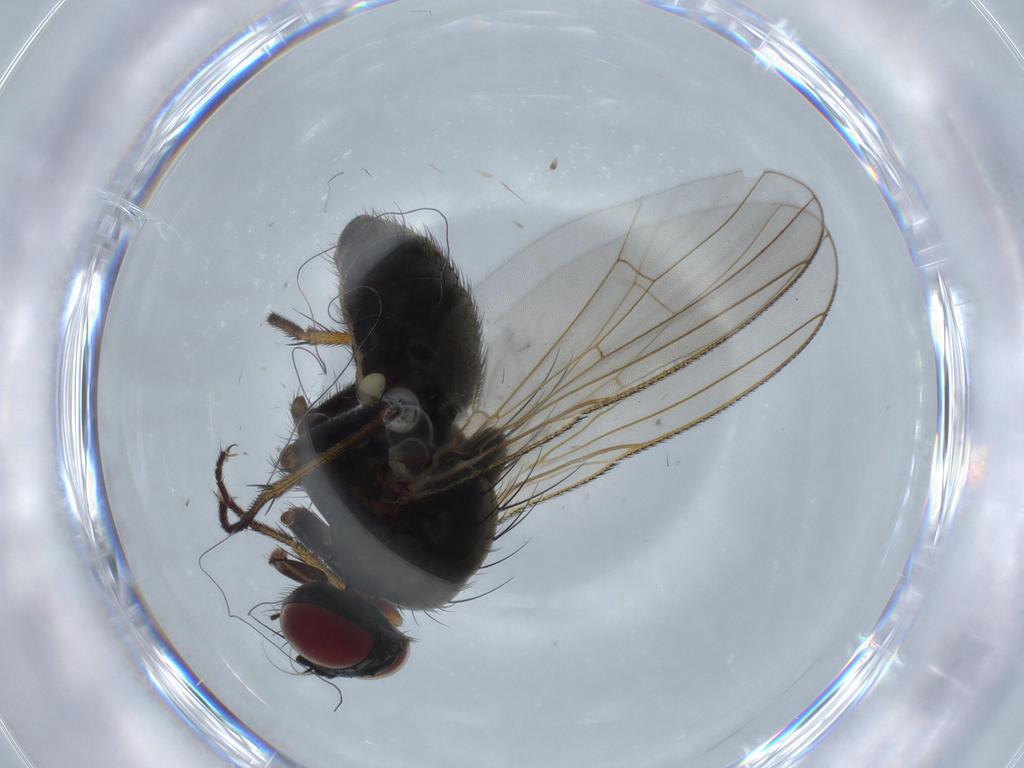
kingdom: Animalia
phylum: Arthropoda
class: Insecta
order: Diptera
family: Muscidae
